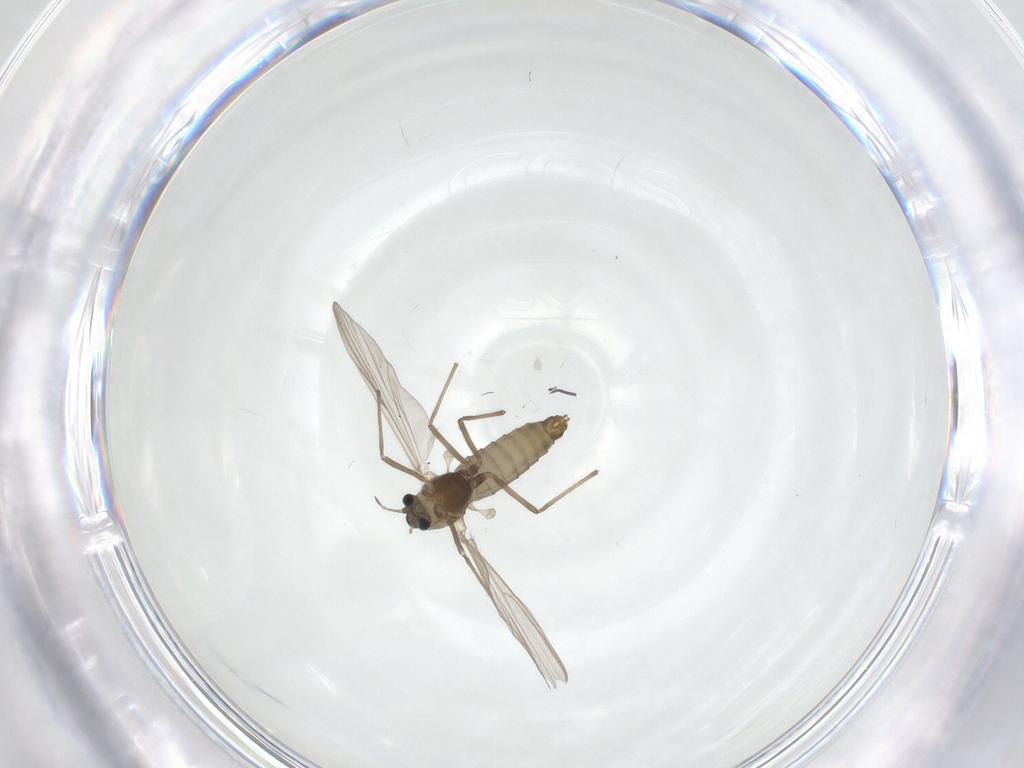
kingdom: Animalia
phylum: Arthropoda
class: Insecta
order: Diptera
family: Chironomidae
